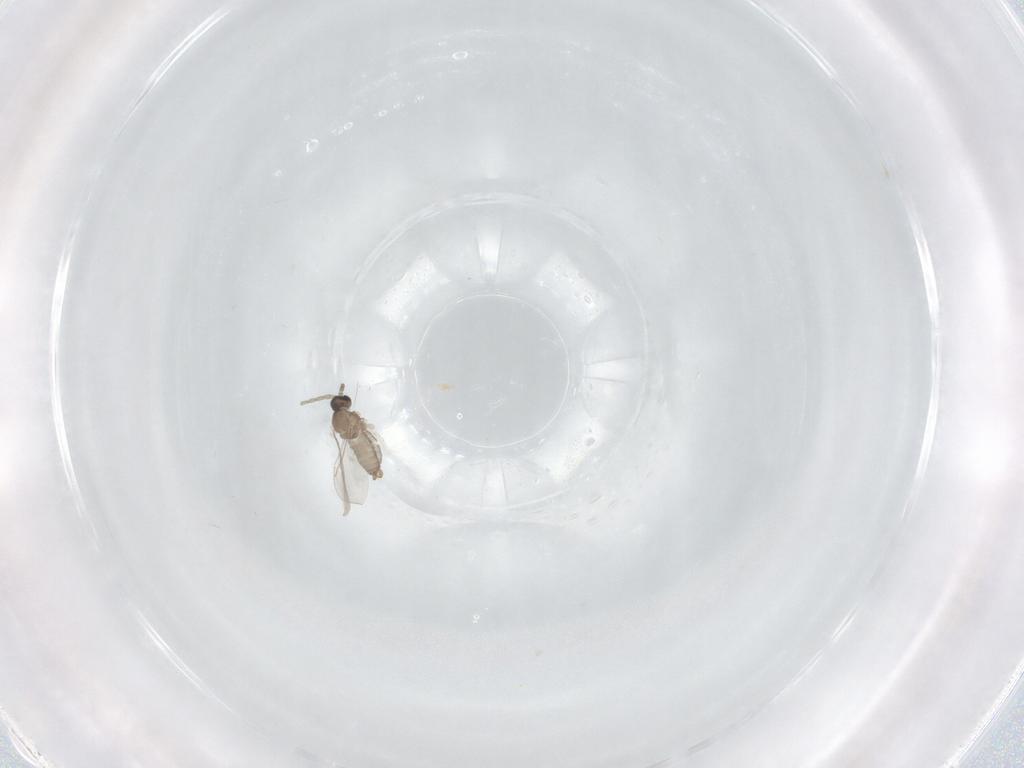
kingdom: Animalia
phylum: Arthropoda
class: Insecta
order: Diptera
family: Cecidomyiidae
